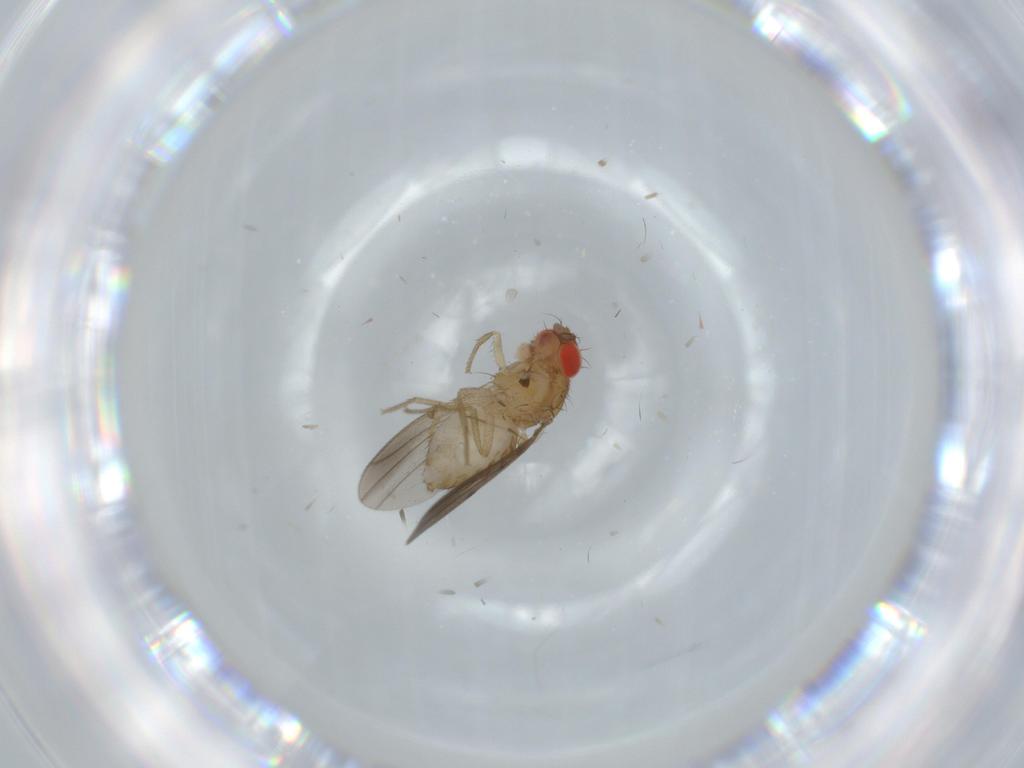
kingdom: Animalia
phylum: Arthropoda
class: Insecta
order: Diptera
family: Drosophilidae
